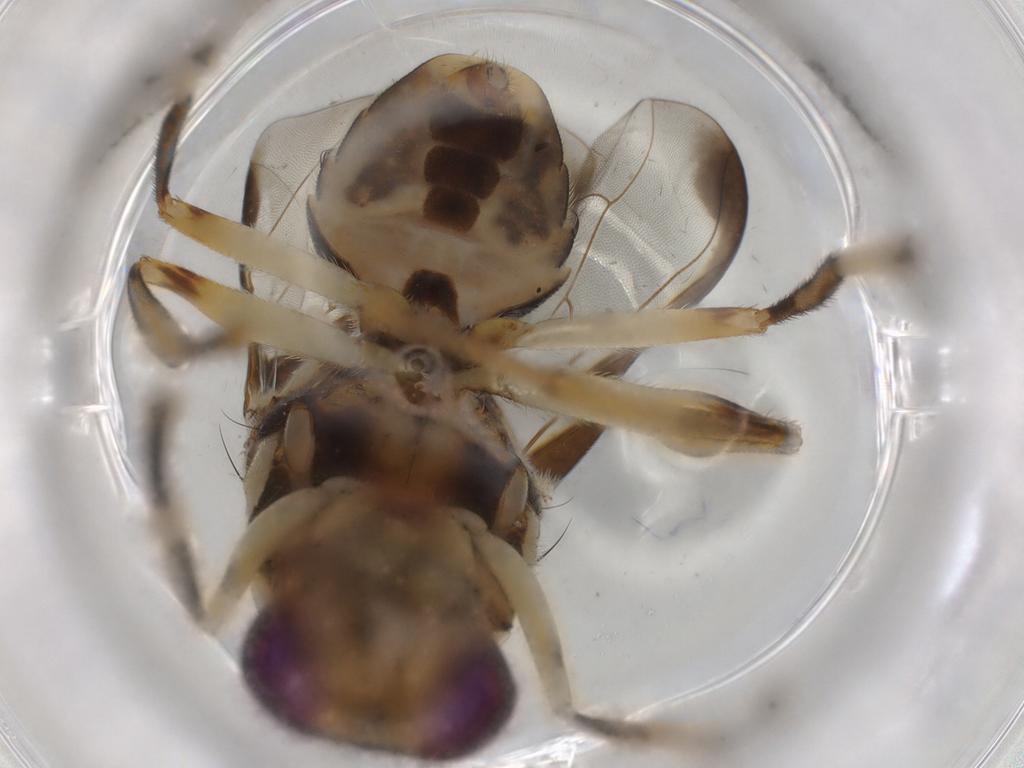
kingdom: Animalia
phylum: Arthropoda
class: Insecta
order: Diptera
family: Tephritidae
